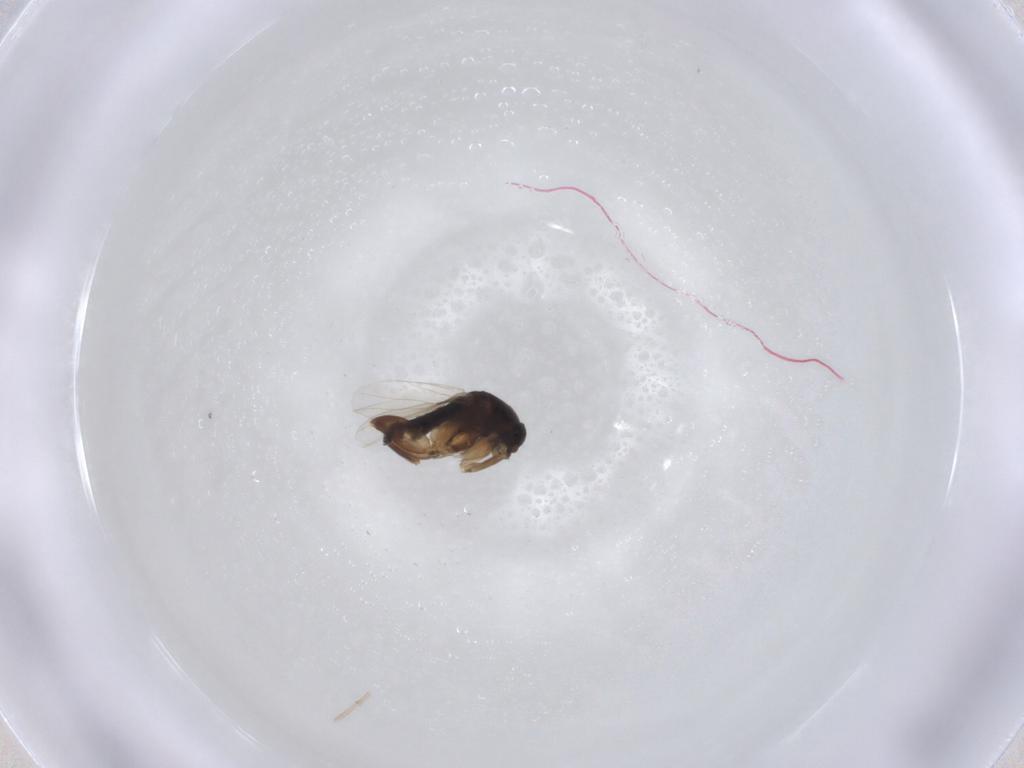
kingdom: Animalia
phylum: Arthropoda
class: Insecta
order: Diptera
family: Phoridae
